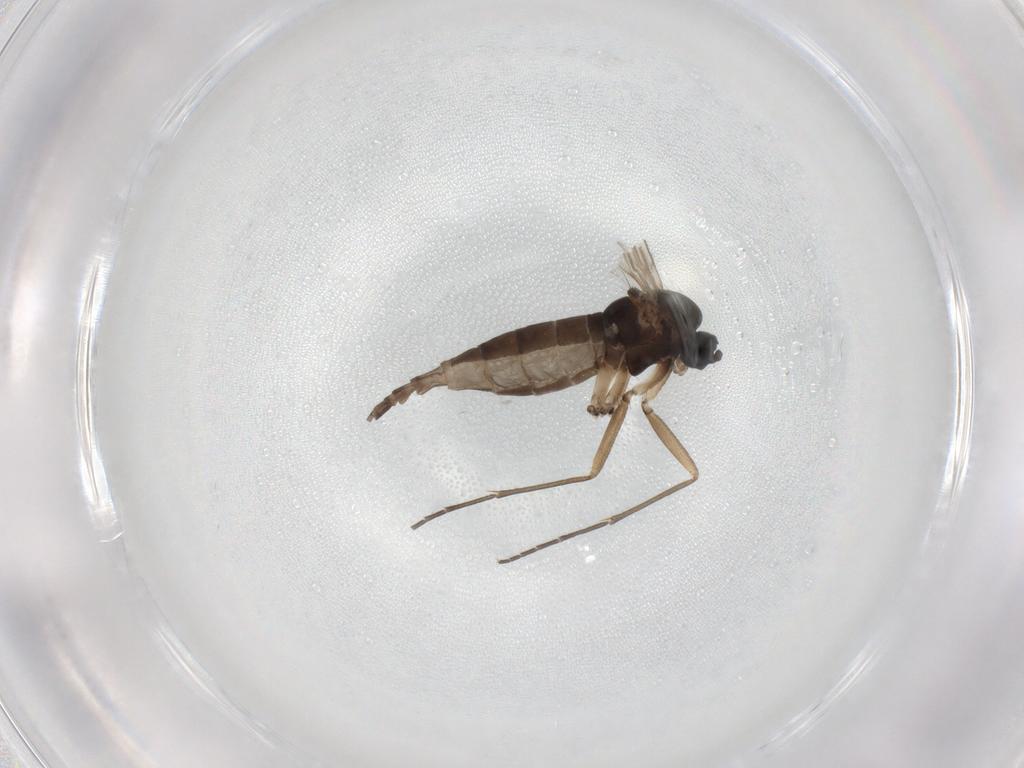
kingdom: Animalia
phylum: Arthropoda
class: Insecta
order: Diptera
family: Sciaridae
